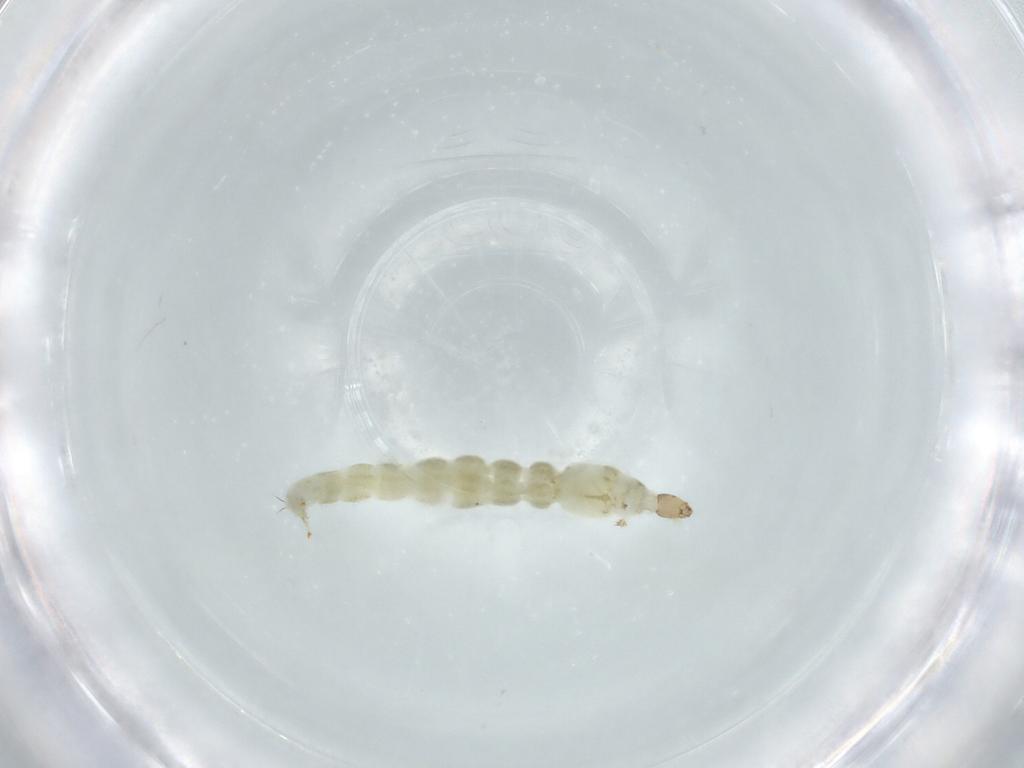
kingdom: Animalia
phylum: Arthropoda
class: Insecta
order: Diptera
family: Chironomidae
